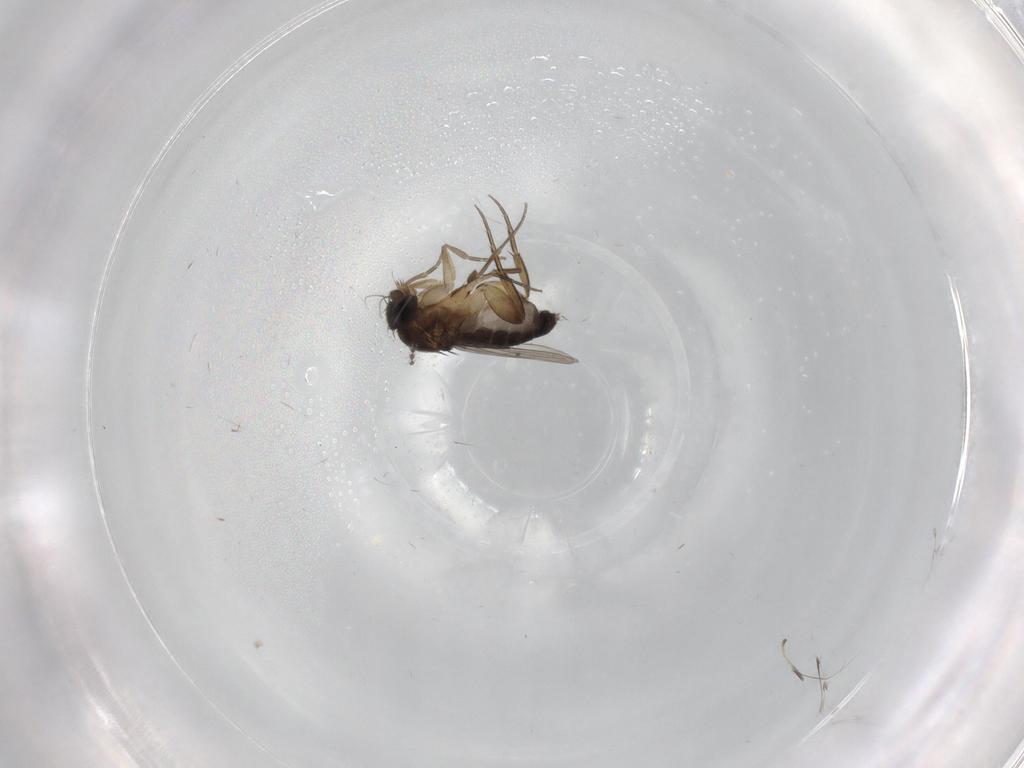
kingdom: Animalia
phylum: Arthropoda
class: Insecta
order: Diptera
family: Phoridae
